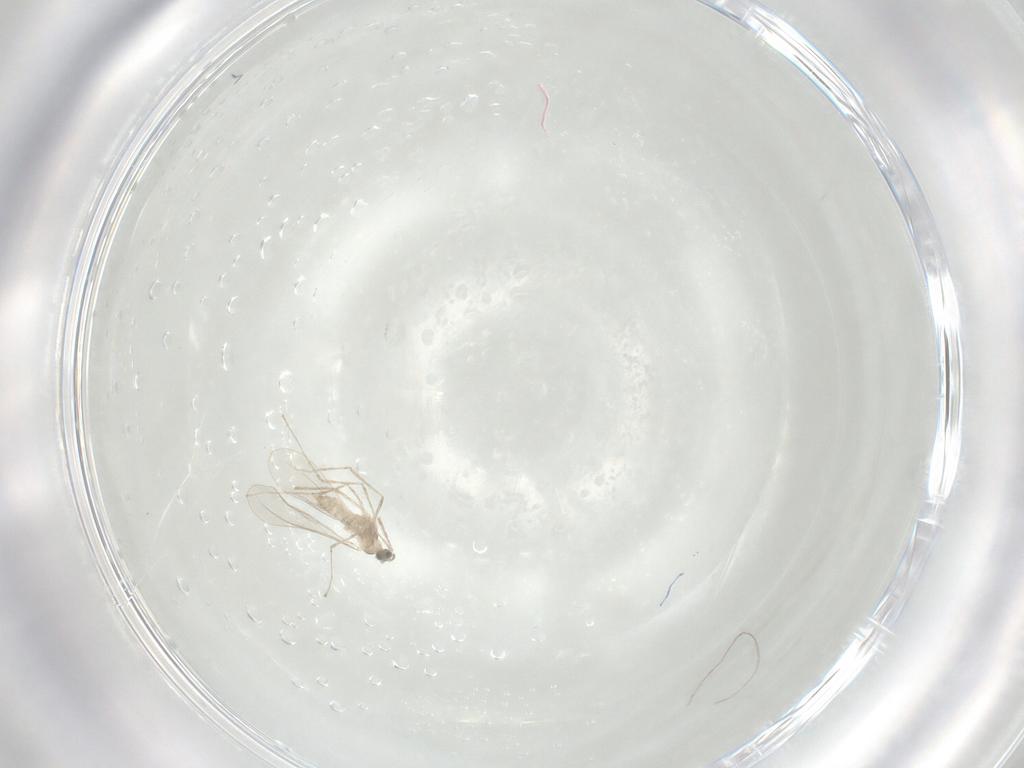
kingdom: Animalia
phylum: Arthropoda
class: Insecta
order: Diptera
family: Cecidomyiidae
